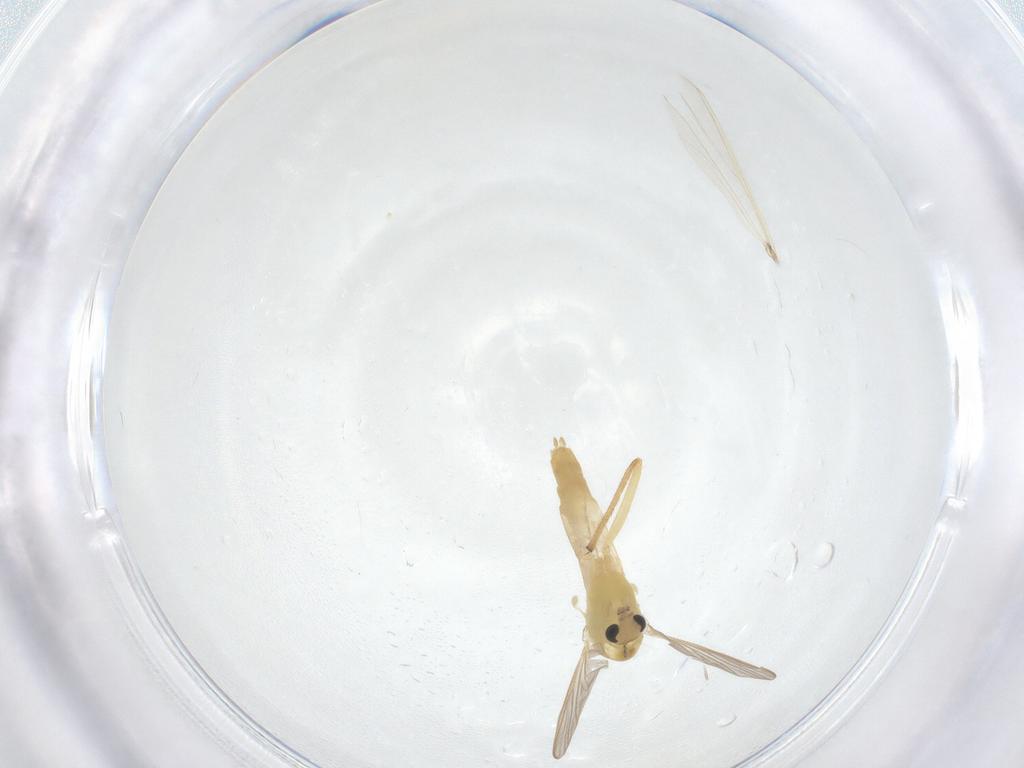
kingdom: Animalia
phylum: Arthropoda
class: Insecta
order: Diptera
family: Chironomidae
